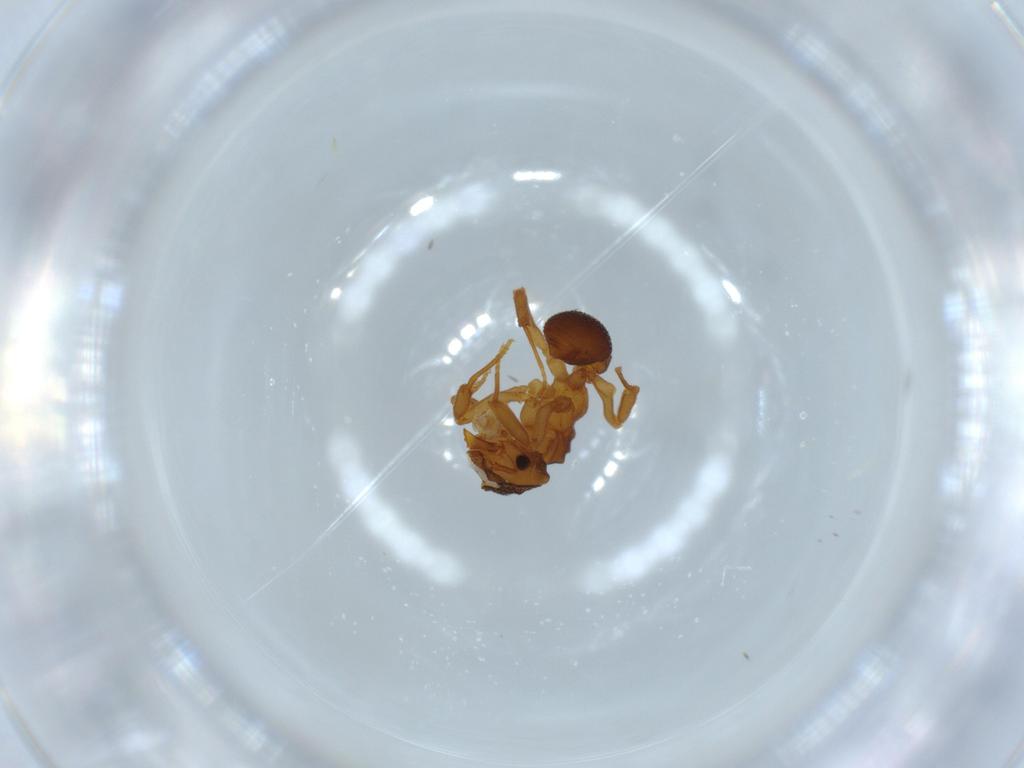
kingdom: Animalia
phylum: Arthropoda
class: Insecta
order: Hymenoptera
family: Formicidae
